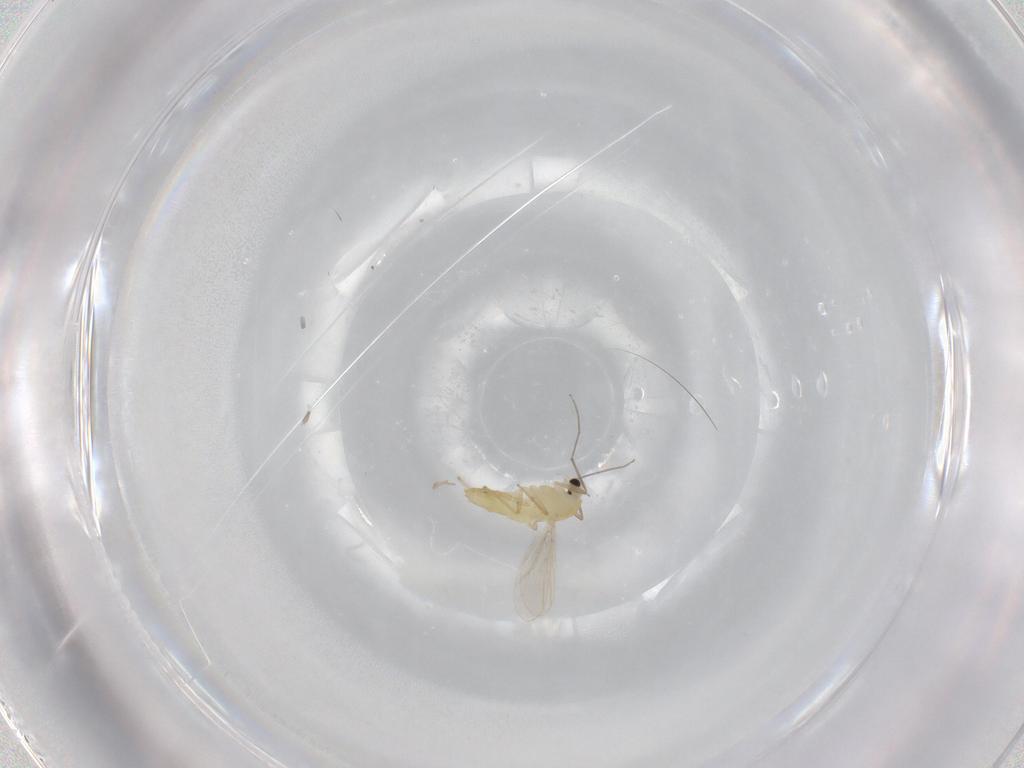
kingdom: Animalia
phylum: Arthropoda
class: Insecta
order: Diptera
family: Chironomidae
